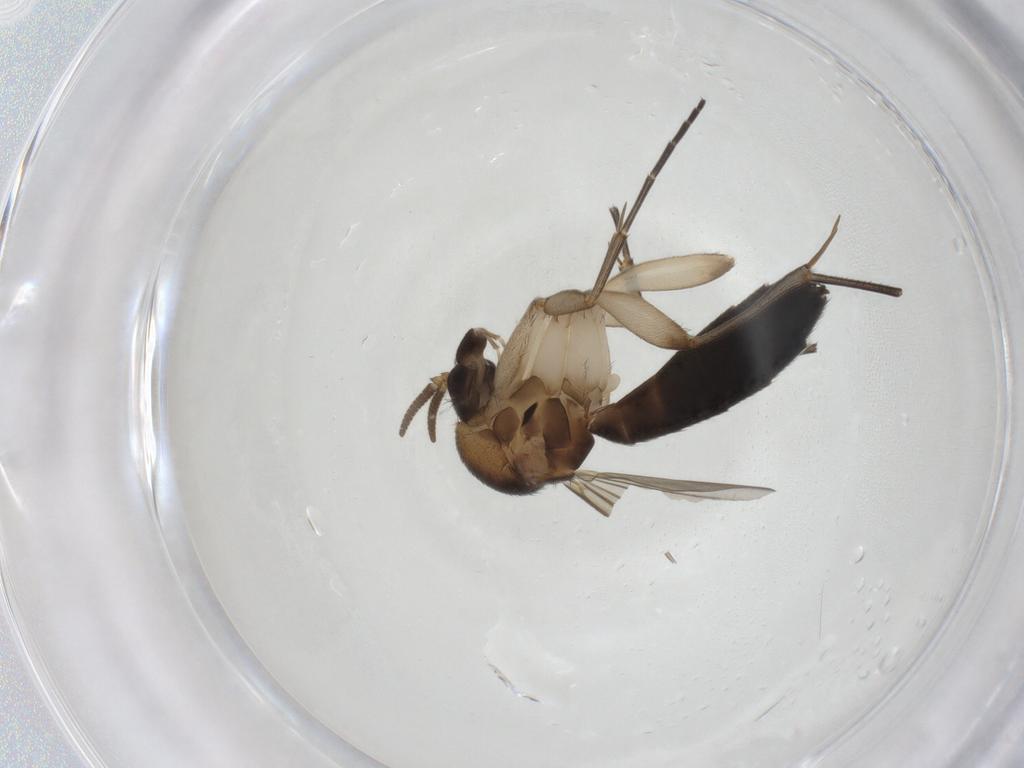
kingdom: Animalia
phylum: Arthropoda
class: Insecta
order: Diptera
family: Mycetophilidae
